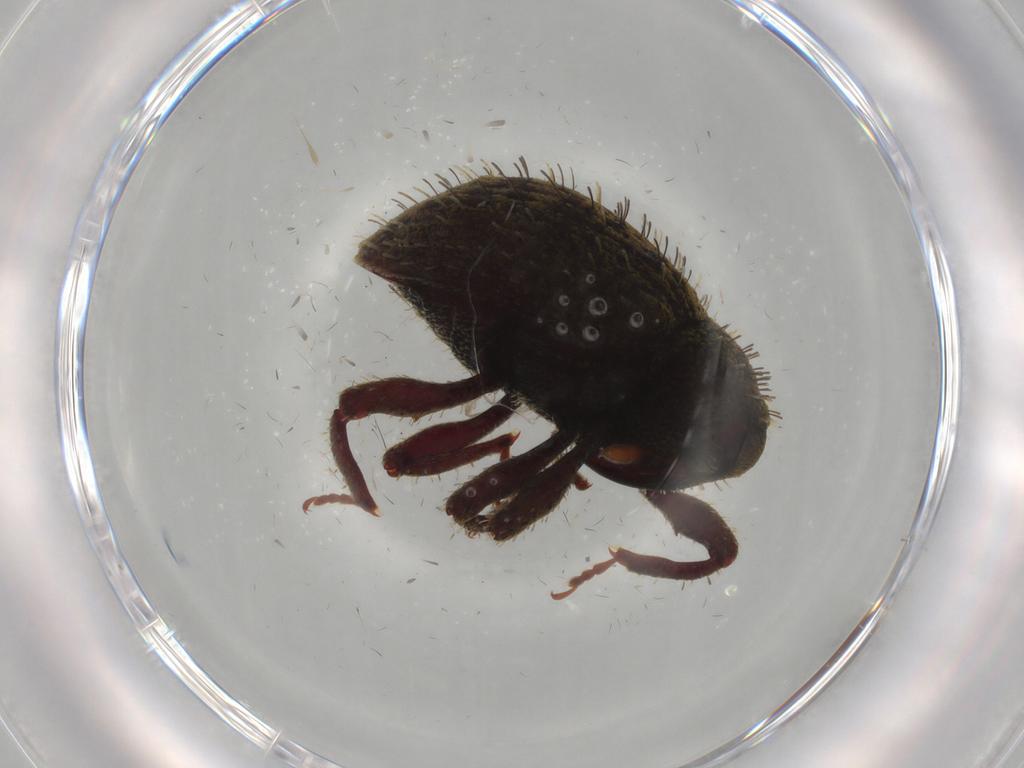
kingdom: Animalia
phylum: Arthropoda
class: Insecta
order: Coleoptera
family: Curculionidae
